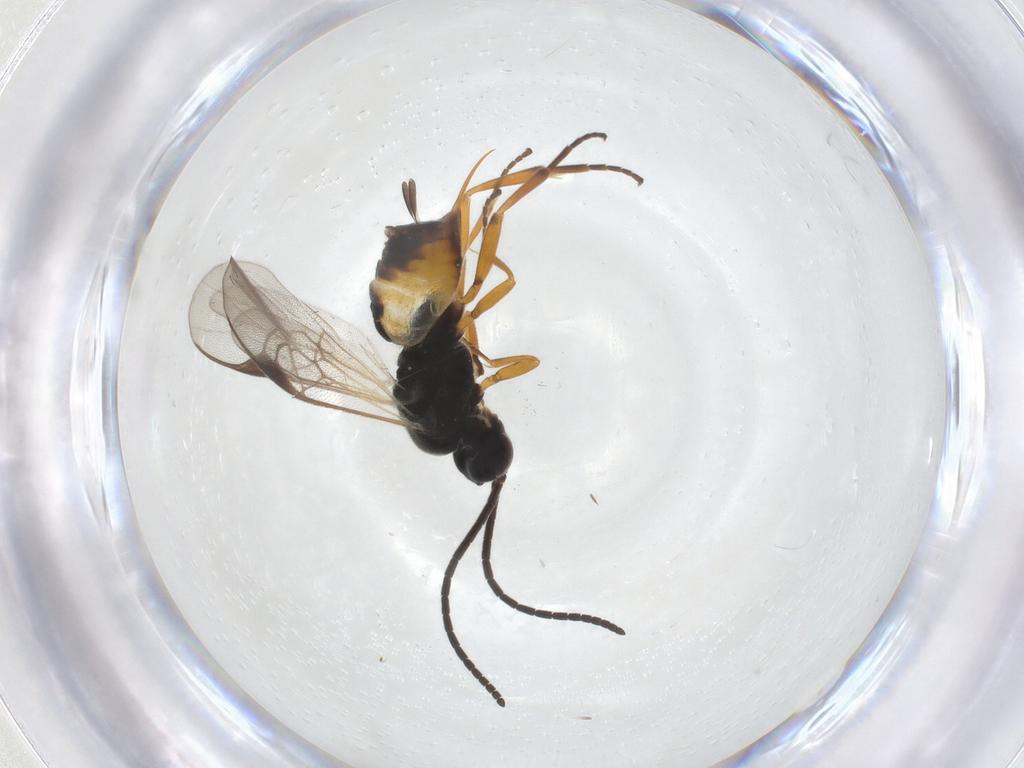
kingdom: Animalia
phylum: Arthropoda
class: Insecta
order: Hymenoptera
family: Braconidae
